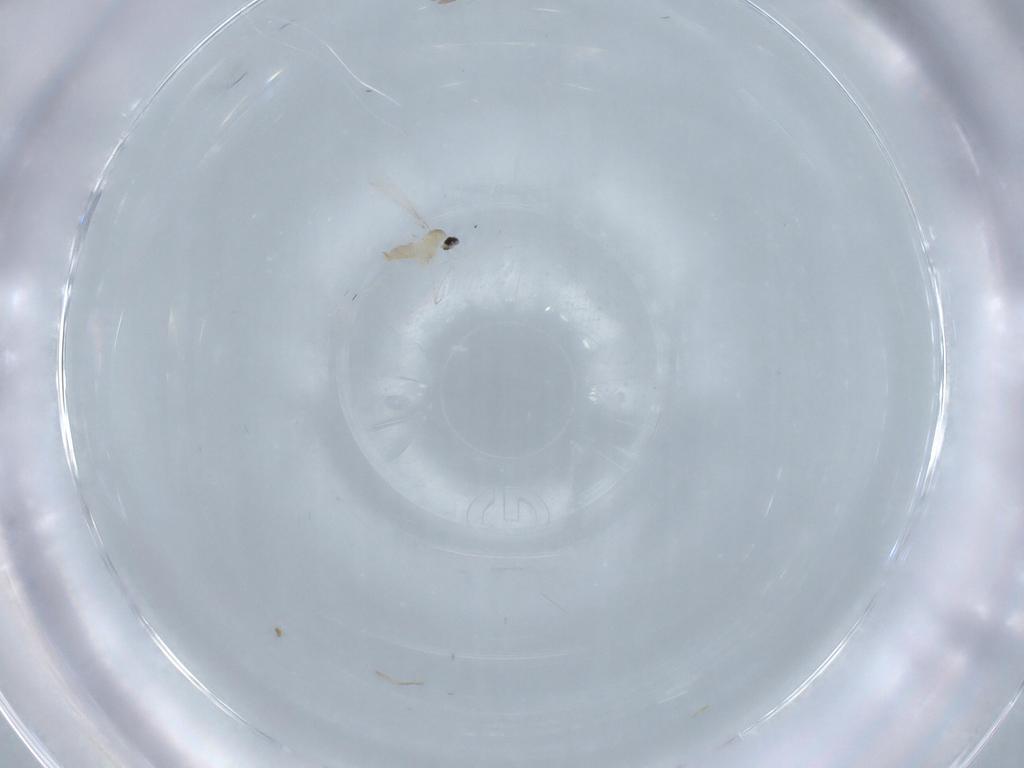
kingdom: Animalia
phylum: Arthropoda
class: Insecta
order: Diptera
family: Cecidomyiidae
